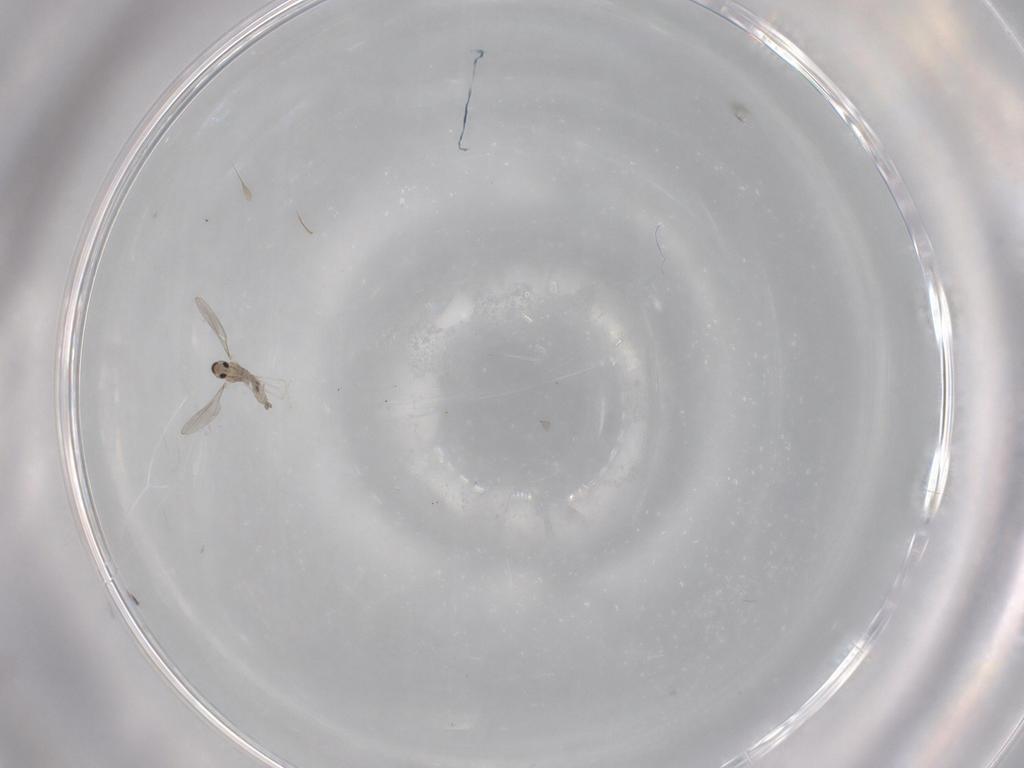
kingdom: Animalia
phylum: Arthropoda
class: Insecta
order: Diptera
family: Cecidomyiidae
